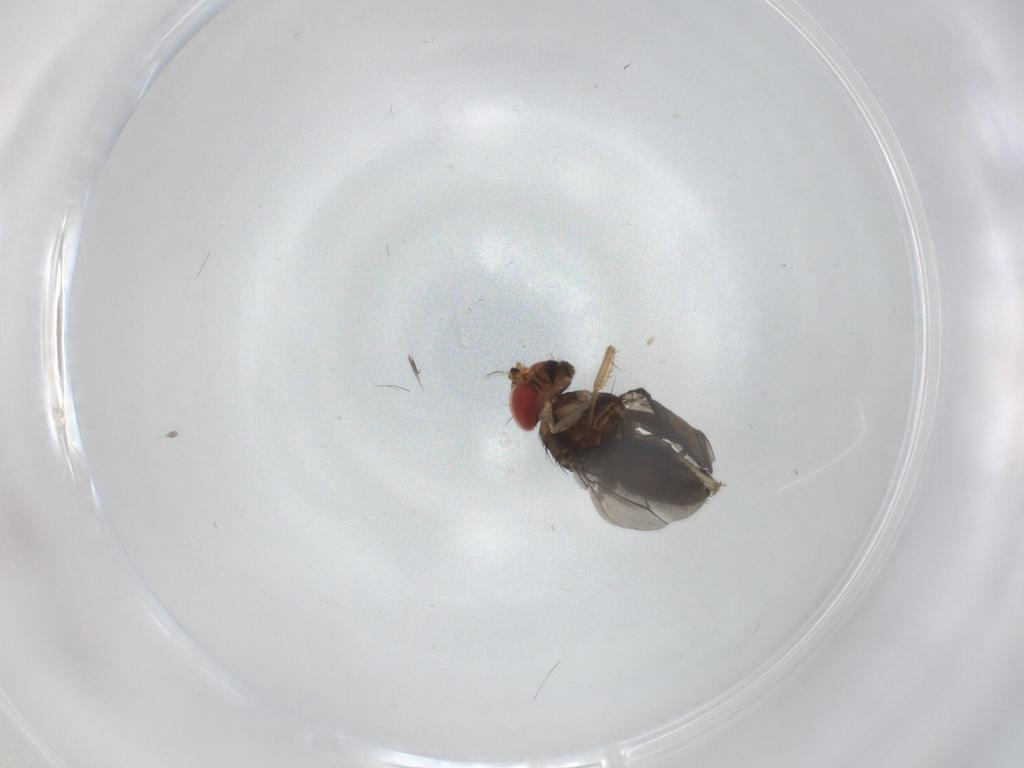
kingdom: Animalia
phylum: Arthropoda
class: Insecta
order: Diptera
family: Drosophilidae
